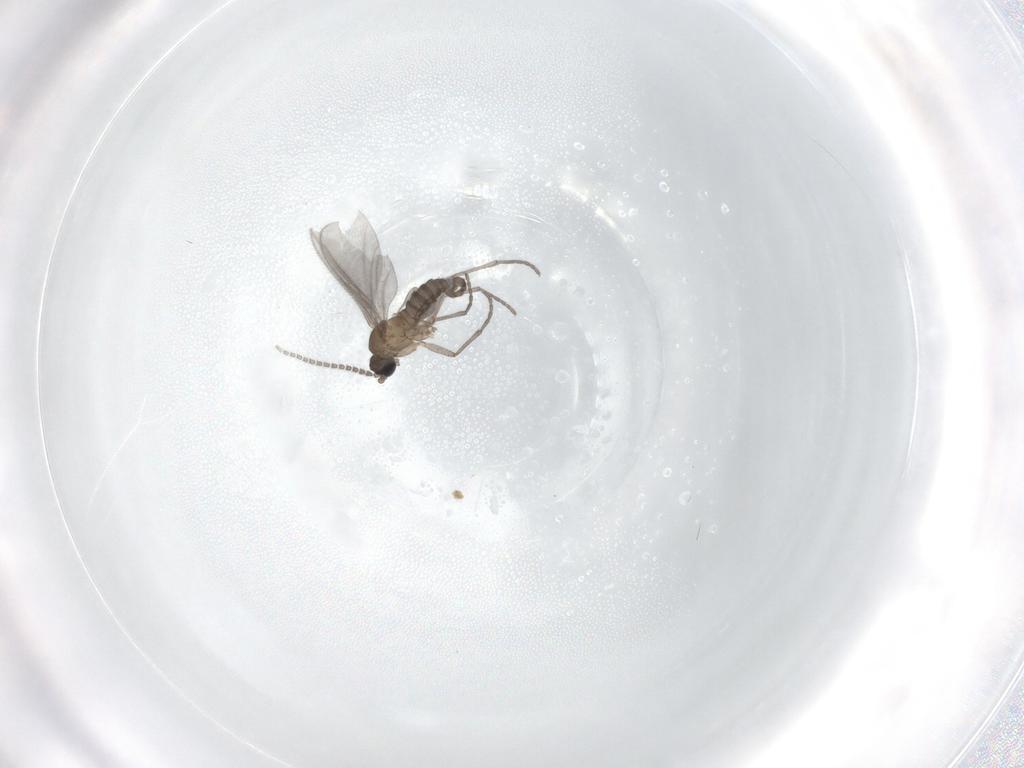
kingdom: Animalia
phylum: Arthropoda
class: Insecta
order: Diptera
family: Sciaridae
